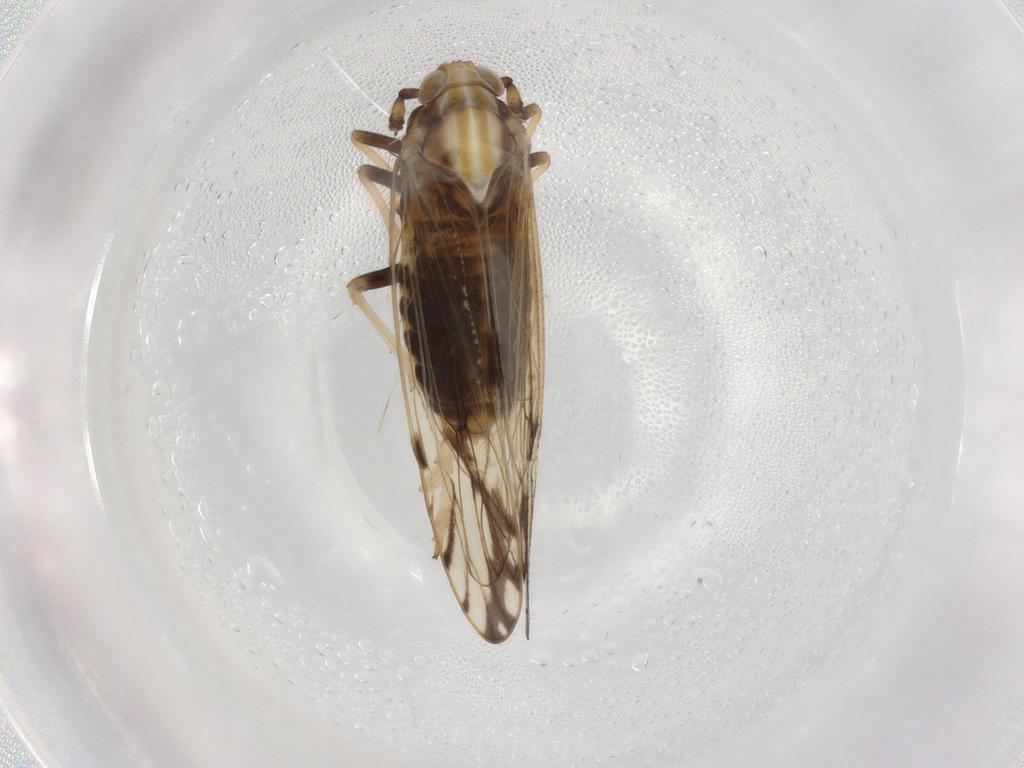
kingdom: Animalia
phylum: Arthropoda
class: Insecta
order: Hemiptera
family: Delphacidae
